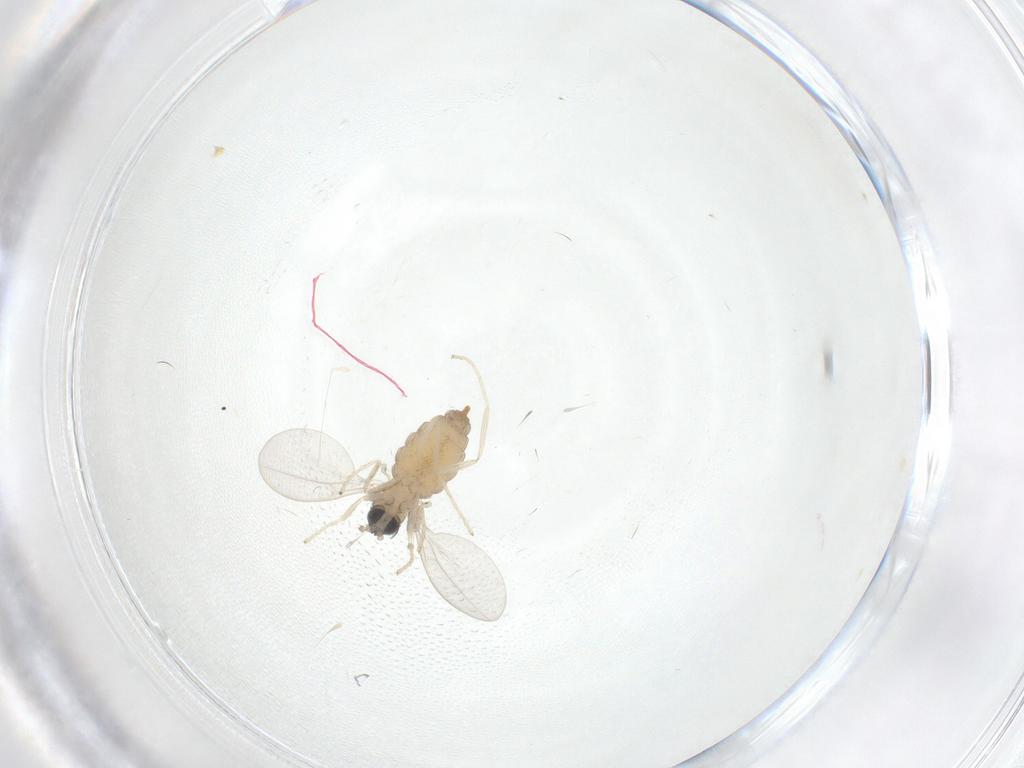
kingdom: Animalia
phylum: Arthropoda
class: Insecta
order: Diptera
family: Cecidomyiidae
